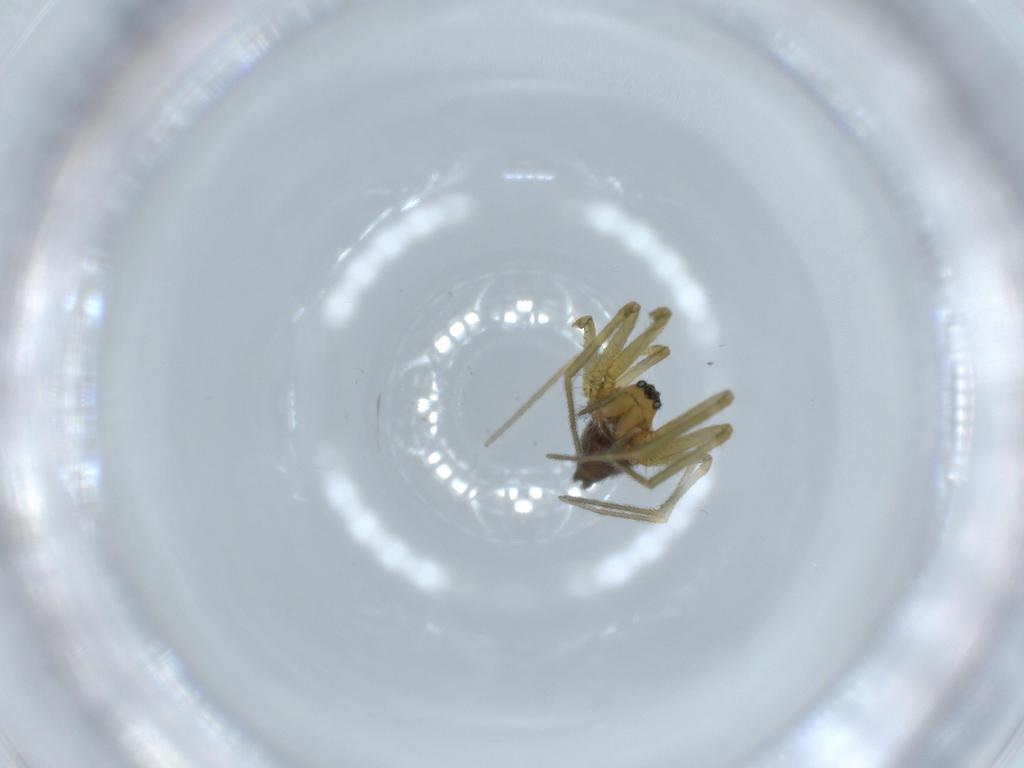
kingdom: Animalia
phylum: Arthropoda
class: Arachnida
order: Araneae
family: Linyphiidae
